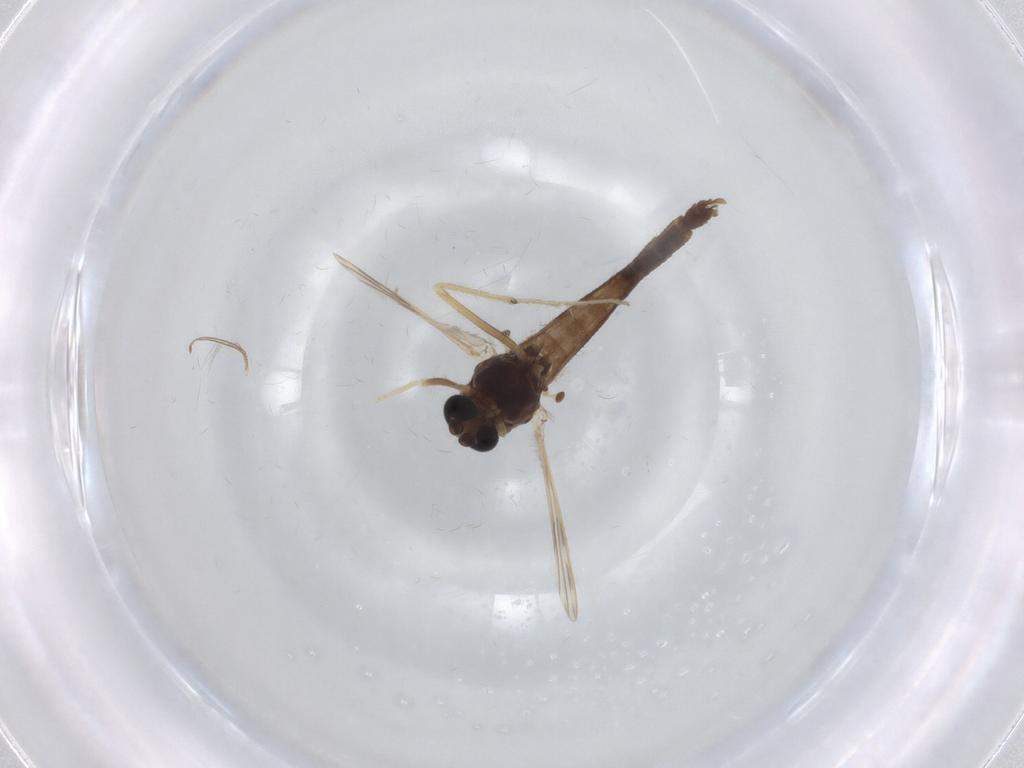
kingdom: Animalia
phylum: Arthropoda
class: Insecta
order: Diptera
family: Chironomidae
